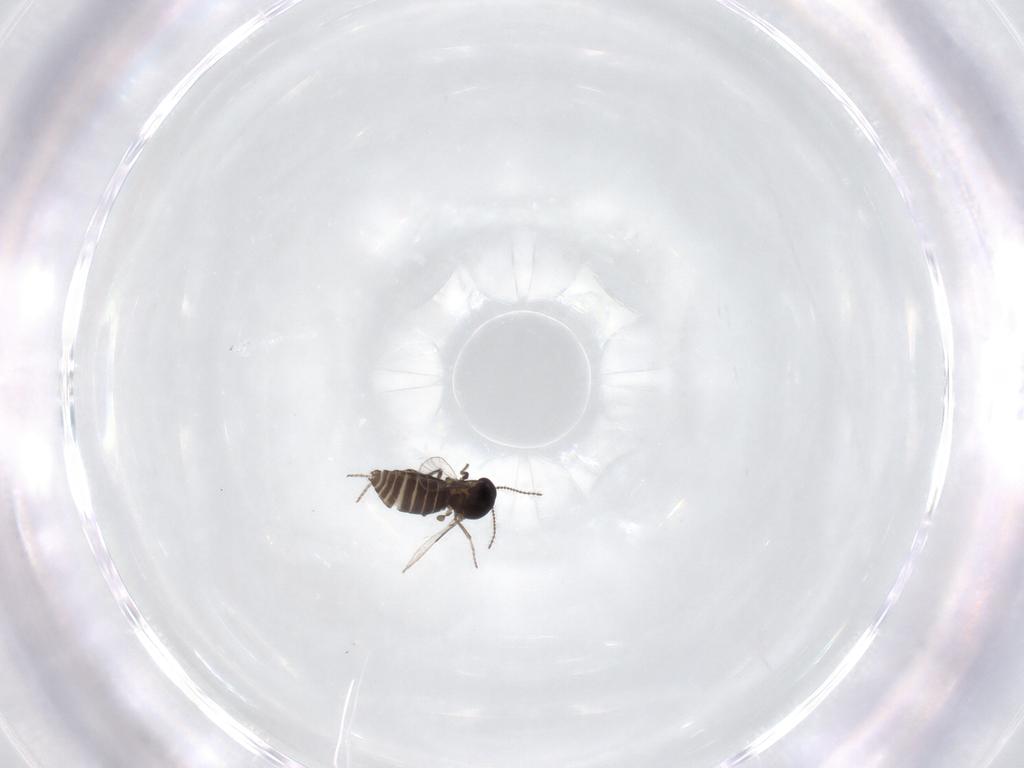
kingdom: Animalia
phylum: Arthropoda
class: Insecta
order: Diptera
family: Ceratopogonidae
